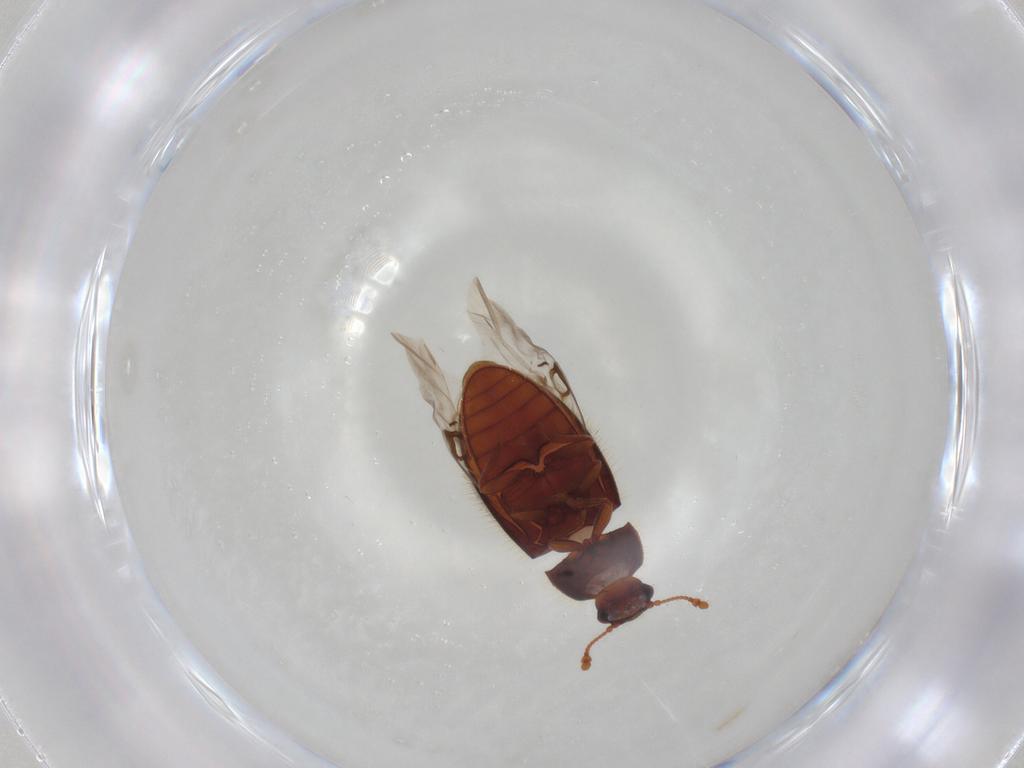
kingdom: Animalia
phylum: Arthropoda
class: Insecta
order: Coleoptera
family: Biphyllidae
